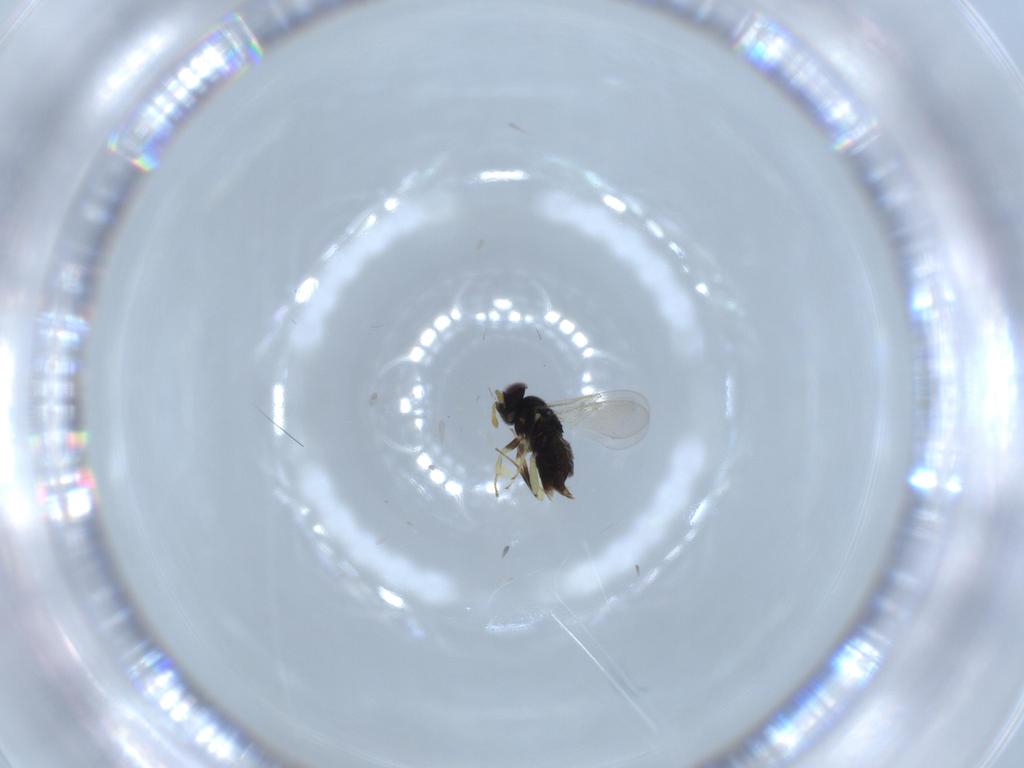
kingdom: Animalia
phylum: Arthropoda
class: Insecta
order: Hymenoptera
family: Aphelinidae
